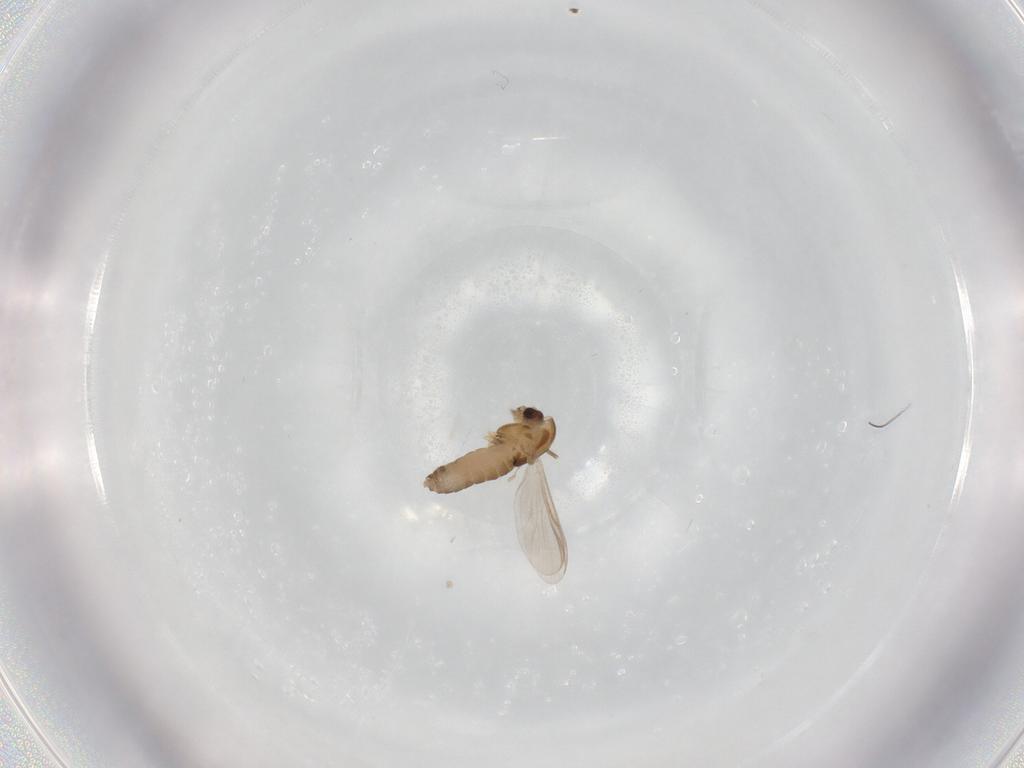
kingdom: Animalia
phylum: Arthropoda
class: Insecta
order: Diptera
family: Chironomidae
